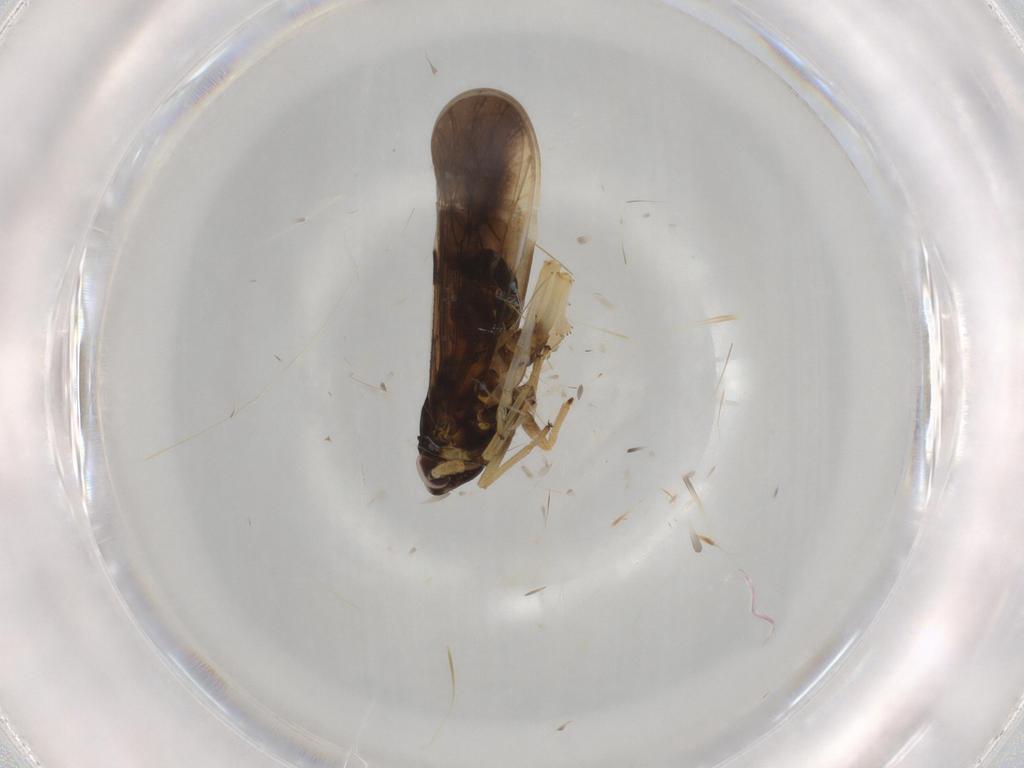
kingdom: Animalia
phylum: Arthropoda
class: Insecta
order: Hemiptera
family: Delphacidae
